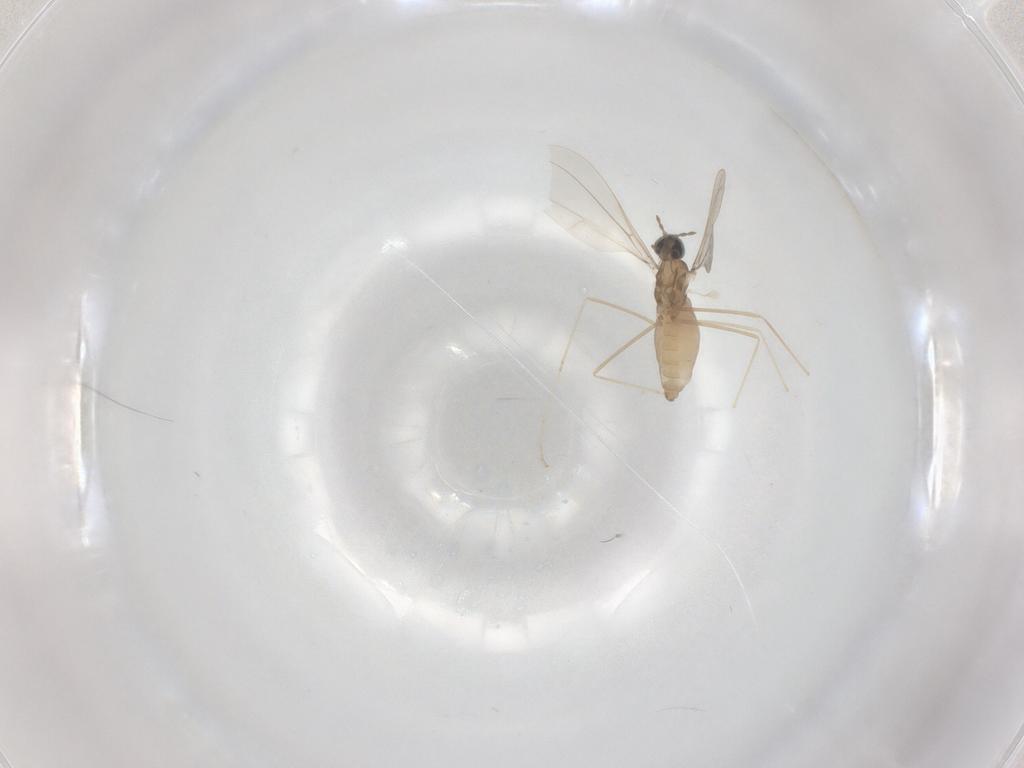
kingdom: Animalia
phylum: Arthropoda
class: Insecta
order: Diptera
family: Cecidomyiidae
